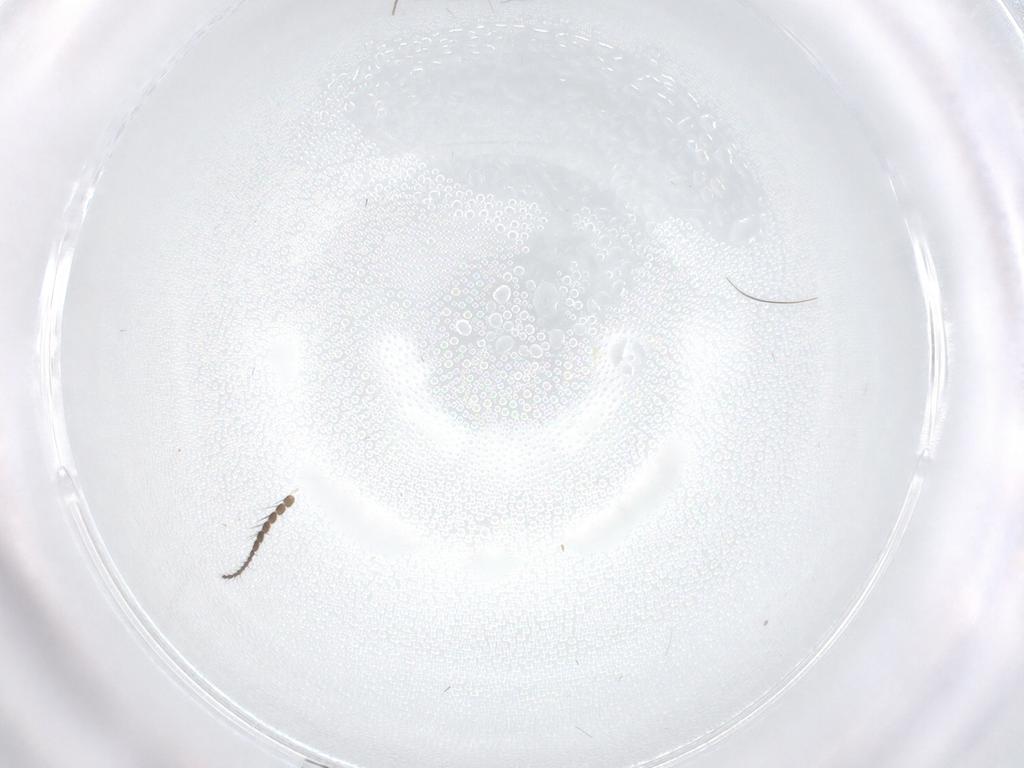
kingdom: Animalia
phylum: Arthropoda
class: Insecta
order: Diptera
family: Limoniidae
